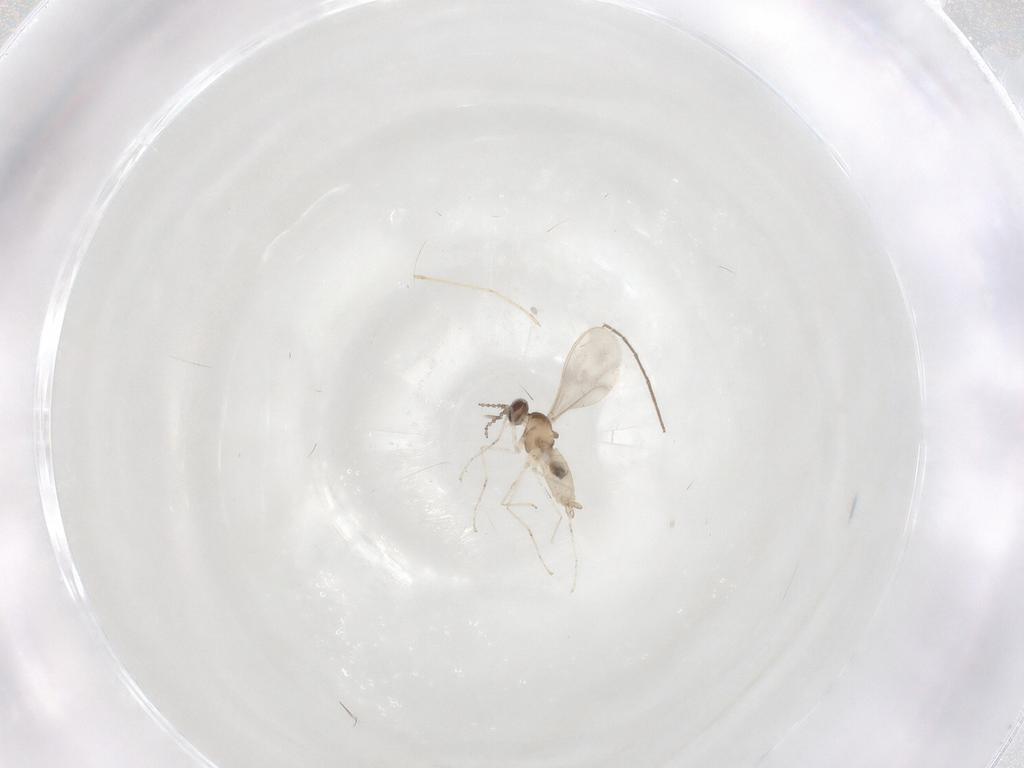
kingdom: Animalia
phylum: Arthropoda
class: Insecta
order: Diptera
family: Cecidomyiidae
